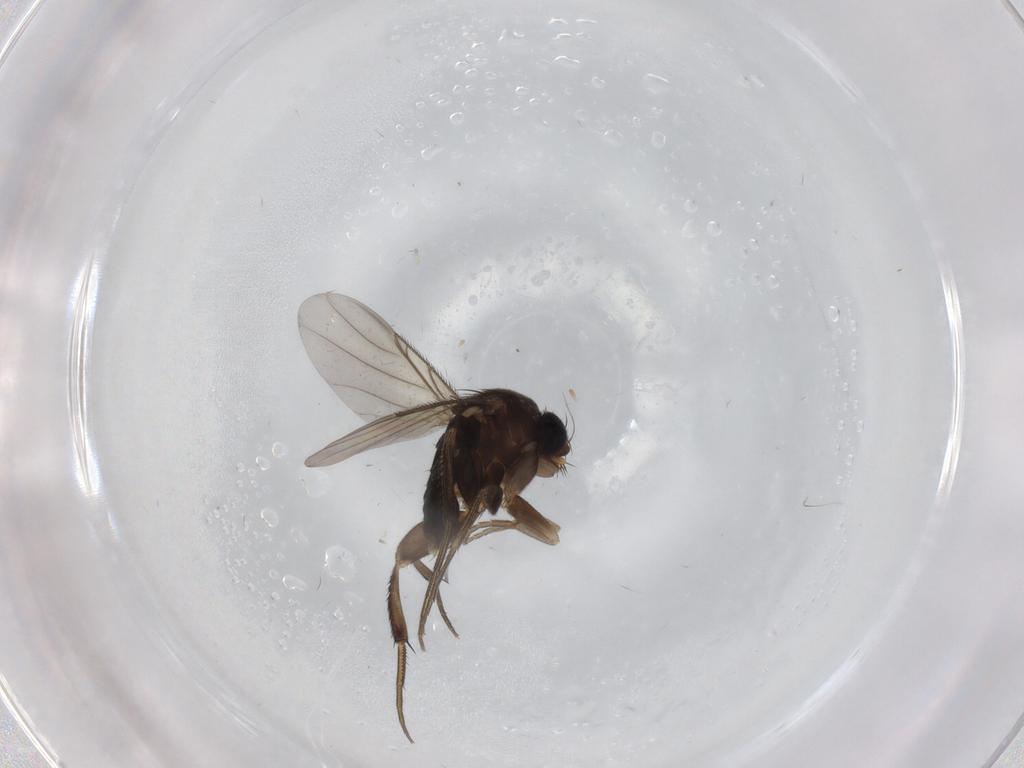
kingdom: Animalia
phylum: Arthropoda
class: Insecta
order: Diptera
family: Phoridae
